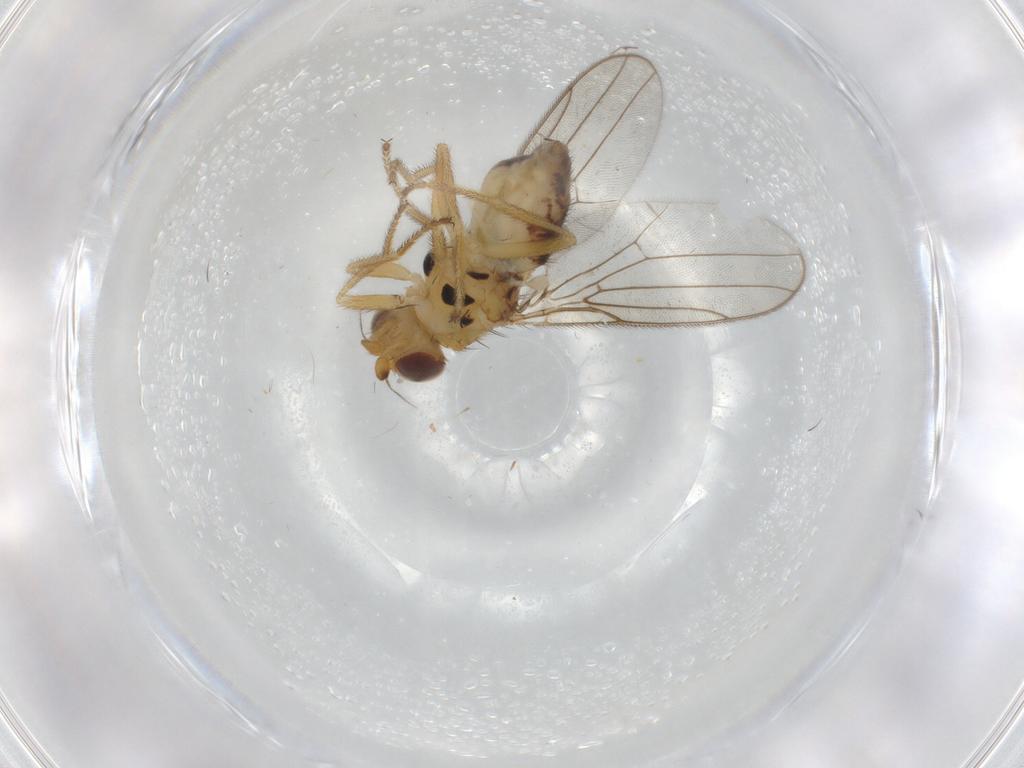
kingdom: Animalia
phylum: Arthropoda
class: Insecta
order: Diptera
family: Chloropidae
